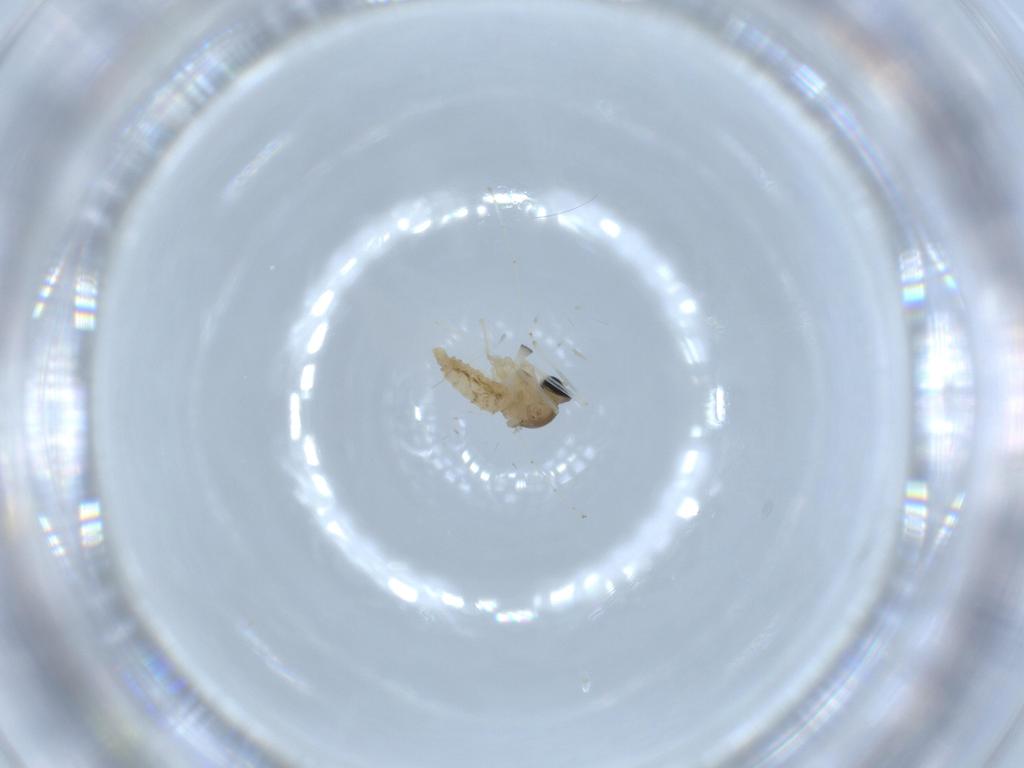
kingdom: Animalia
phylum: Arthropoda
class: Insecta
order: Diptera
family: Cecidomyiidae
